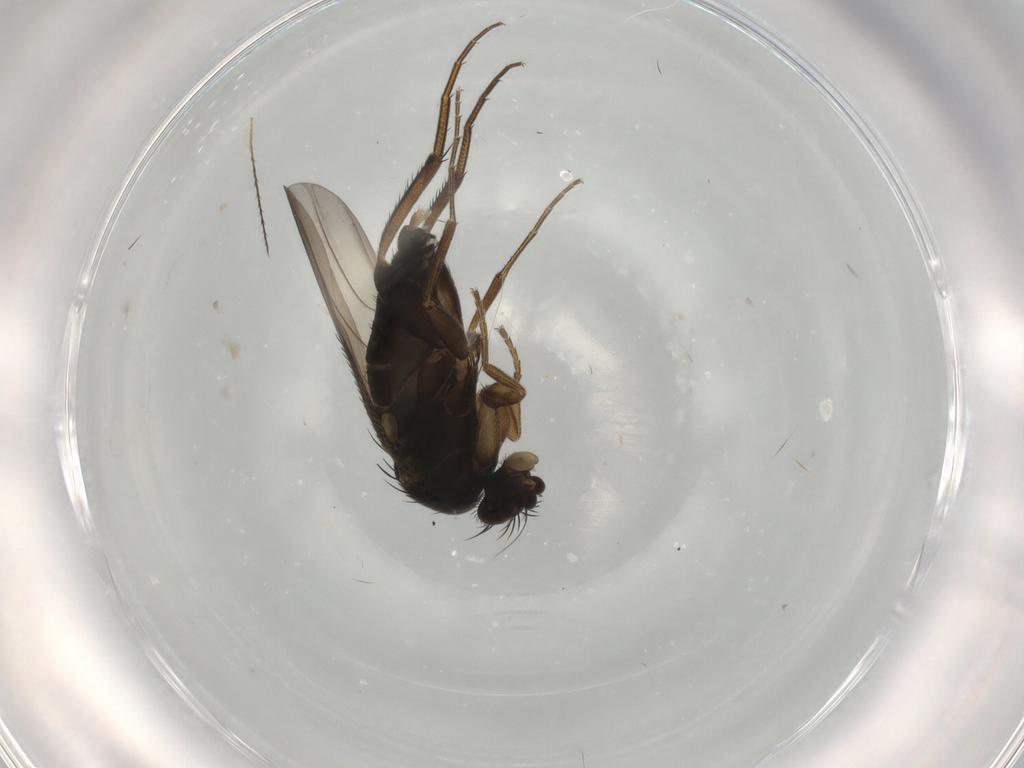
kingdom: Animalia
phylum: Arthropoda
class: Insecta
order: Diptera
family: Phoridae
